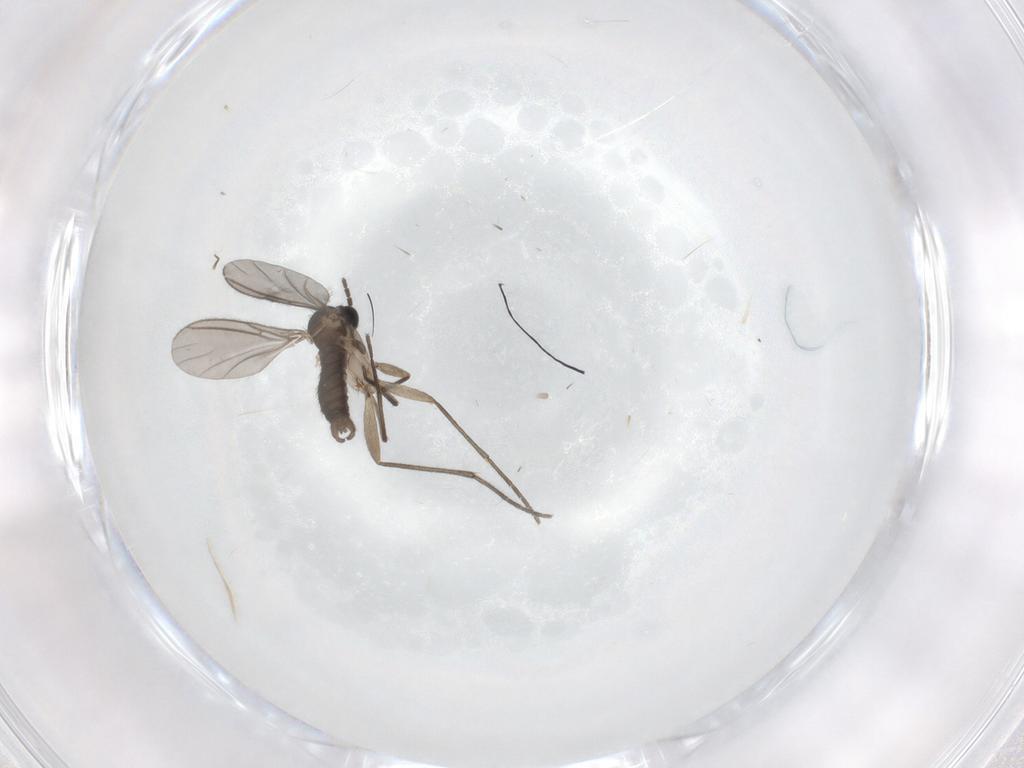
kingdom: Animalia
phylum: Arthropoda
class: Insecta
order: Diptera
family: Sciaridae
